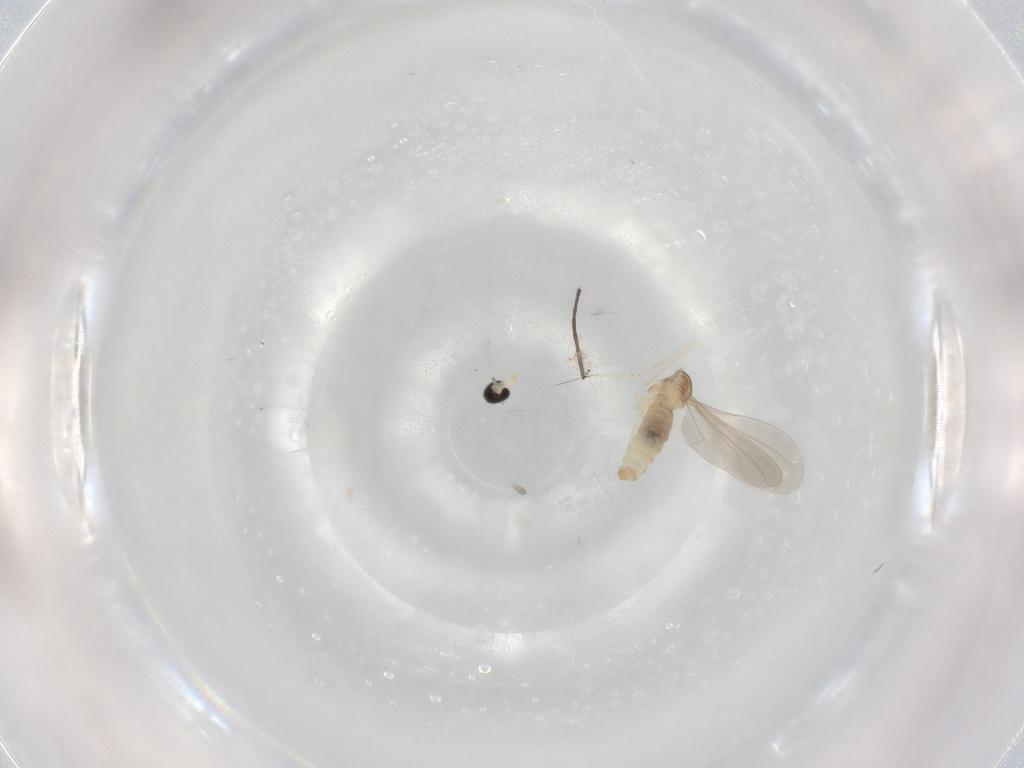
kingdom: Animalia
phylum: Arthropoda
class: Insecta
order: Diptera
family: Cecidomyiidae
